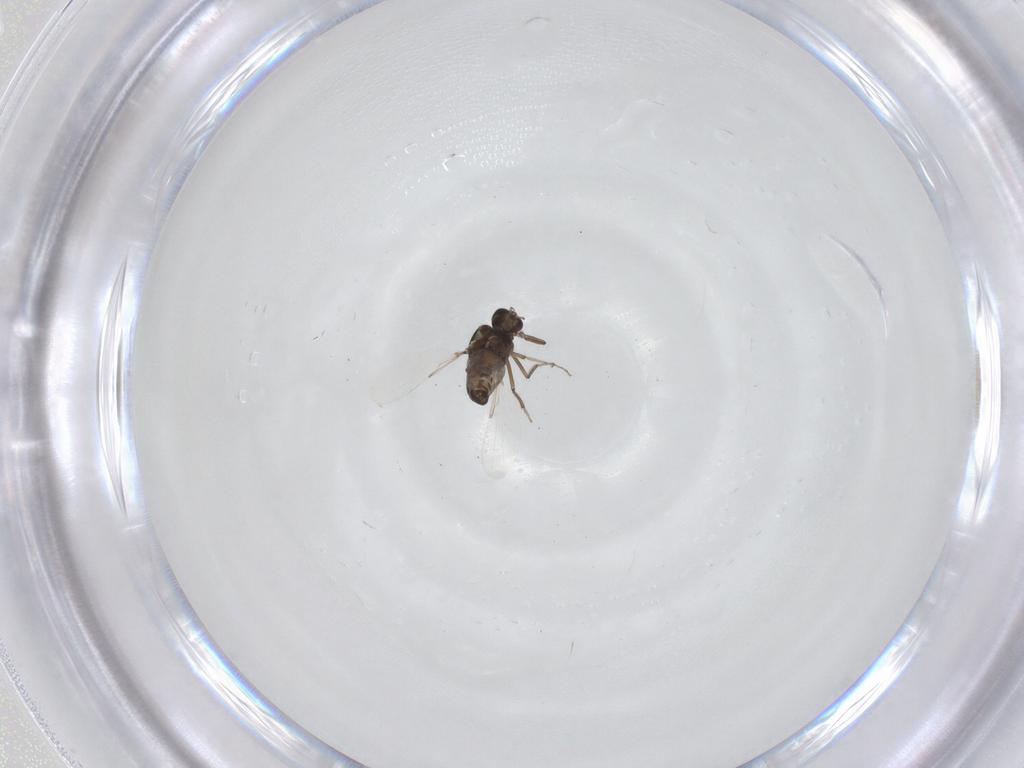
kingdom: Animalia
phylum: Arthropoda
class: Insecta
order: Diptera
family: Ceratopogonidae
